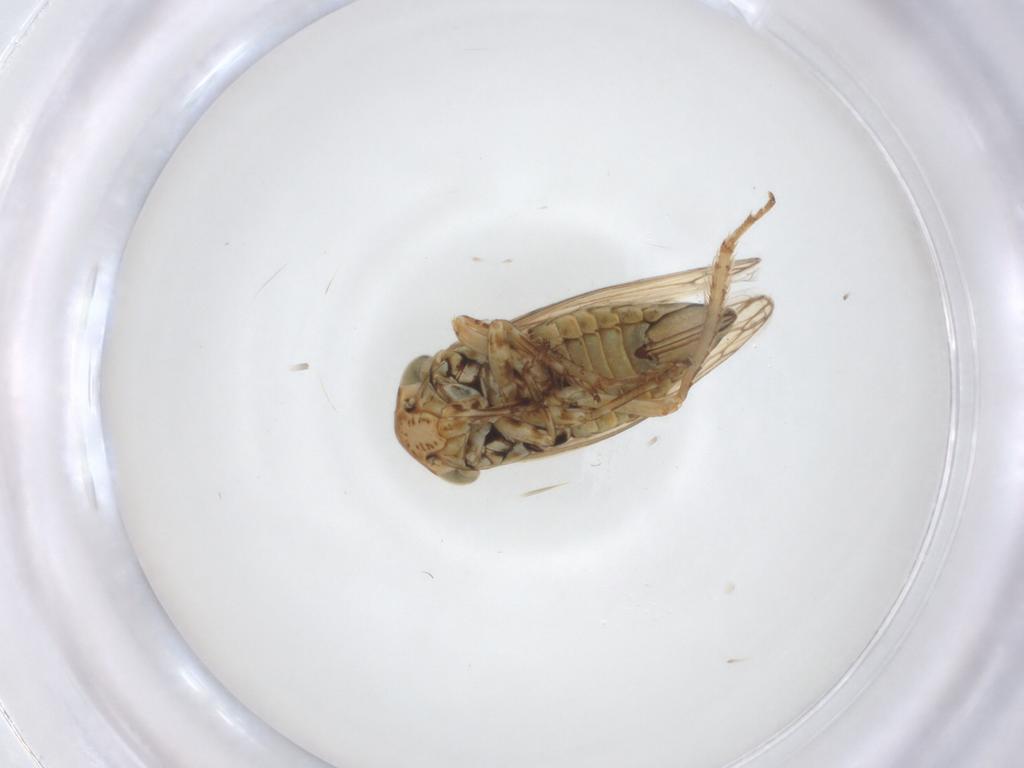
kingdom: Animalia
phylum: Arthropoda
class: Insecta
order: Hemiptera
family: Cicadellidae
